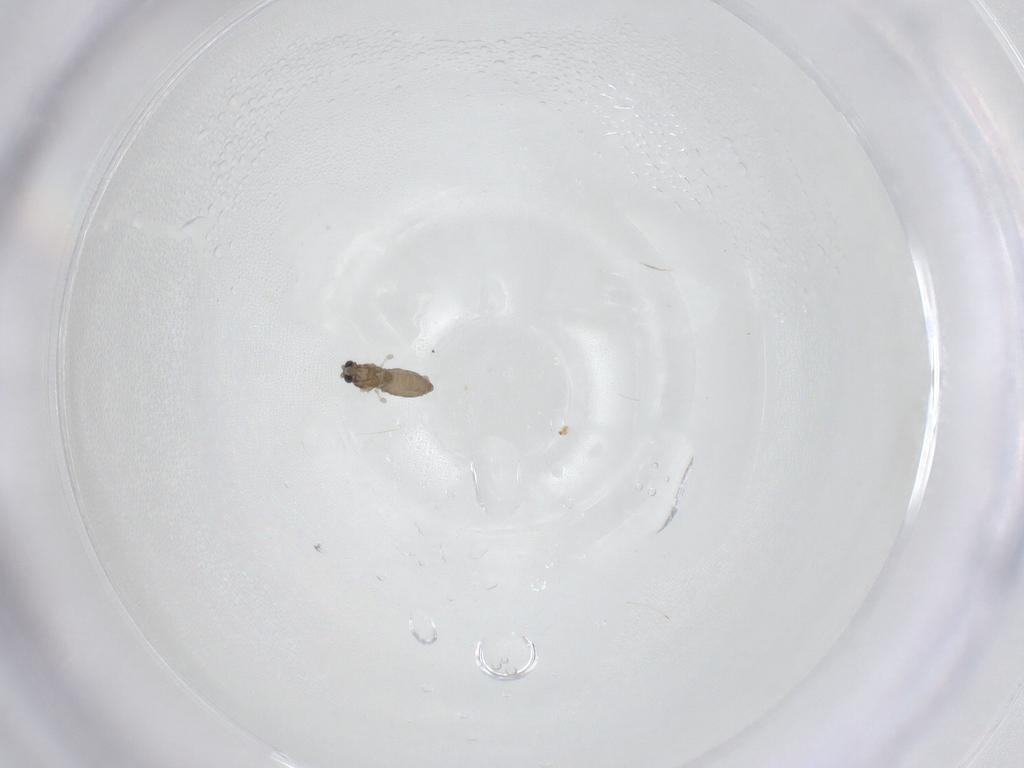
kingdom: Animalia
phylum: Arthropoda
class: Insecta
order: Diptera
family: Cecidomyiidae
